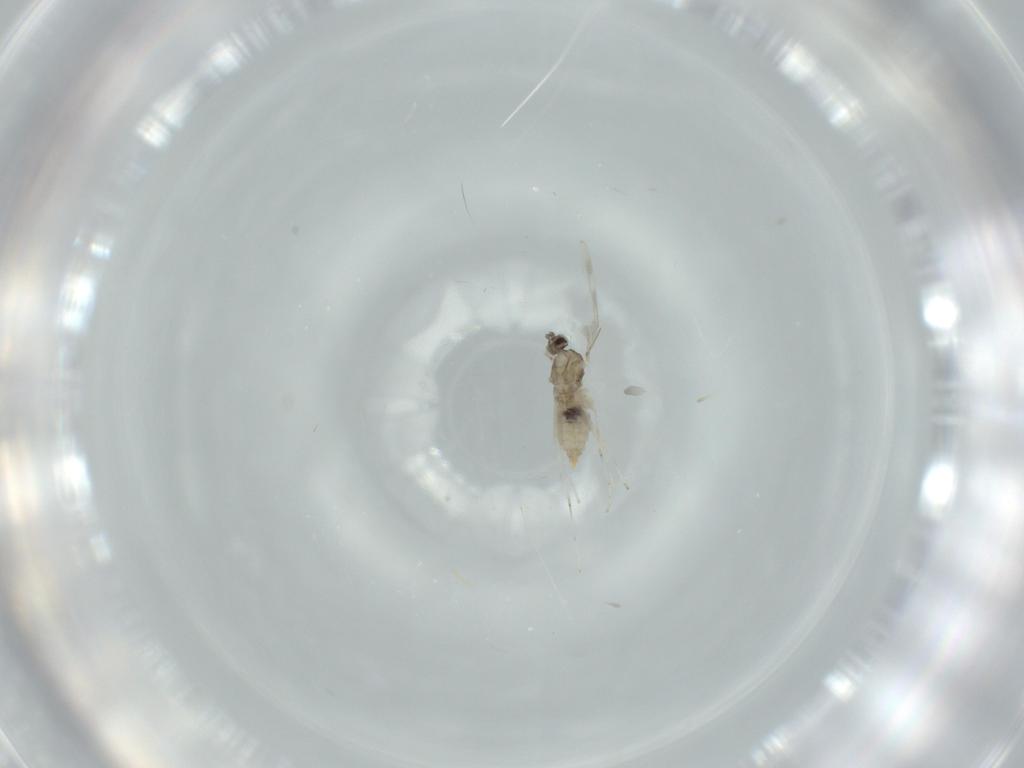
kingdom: Animalia
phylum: Arthropoda
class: Insecta
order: Diptera
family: Cecidomyiidae
